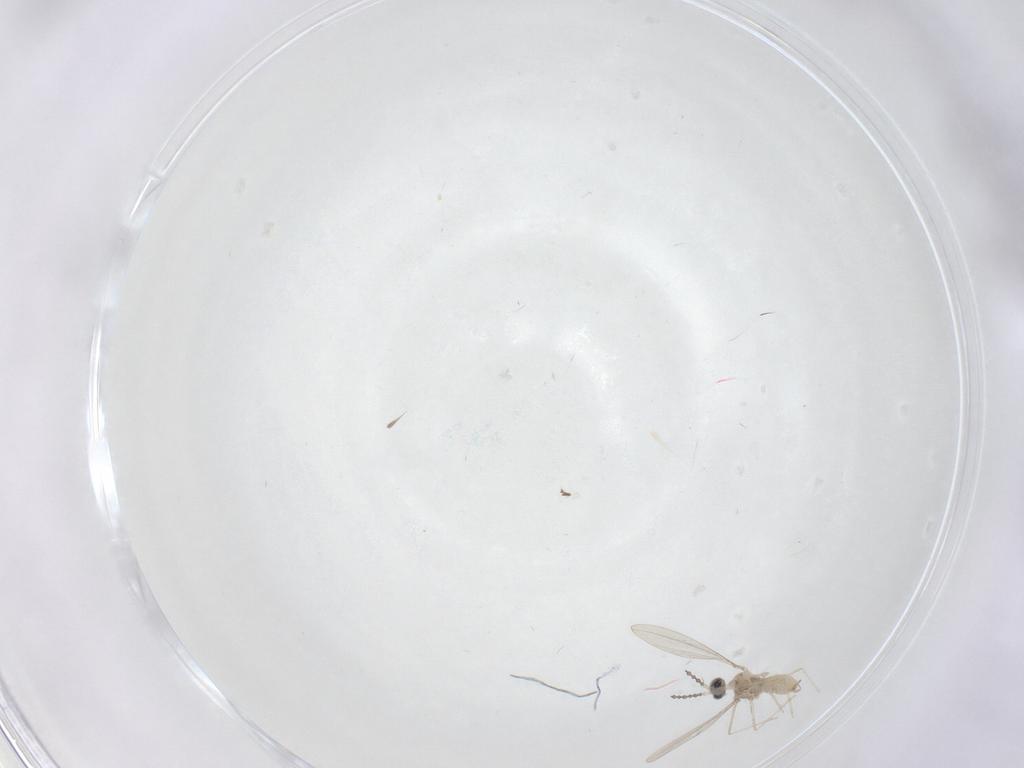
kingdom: Animalia
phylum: Arthropoda
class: Insecta
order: Diptera
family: Cecidomyiidae
